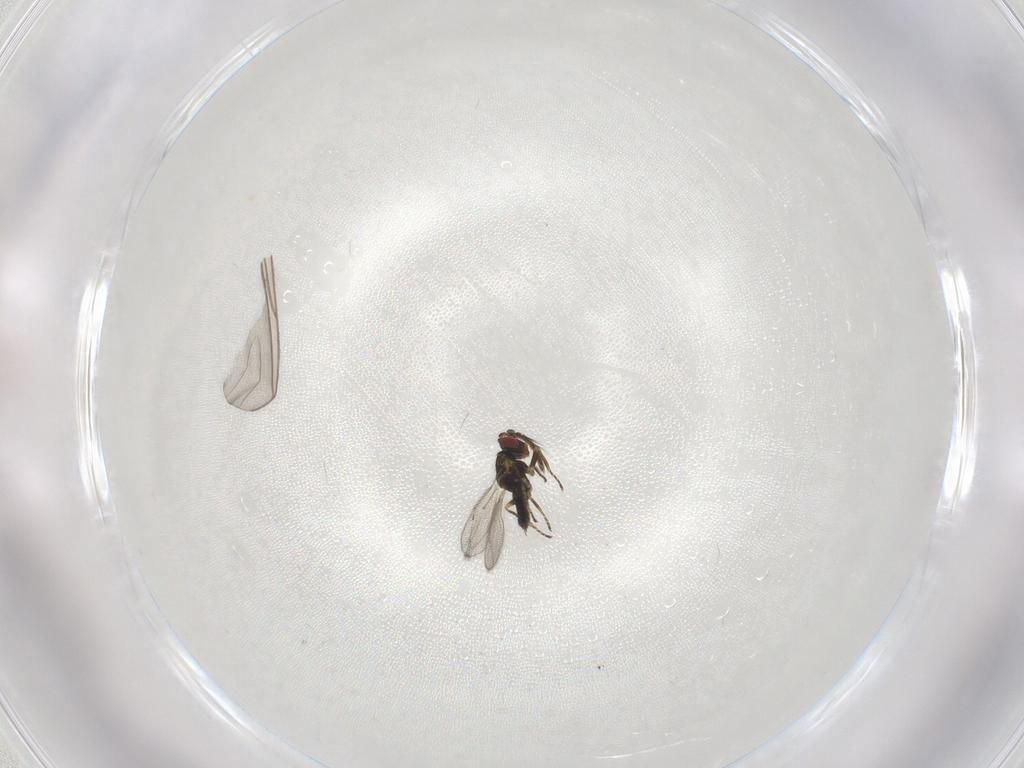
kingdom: Animalia
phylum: Arthropoda
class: Insecta
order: Hymenoptera
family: Eulophidae
